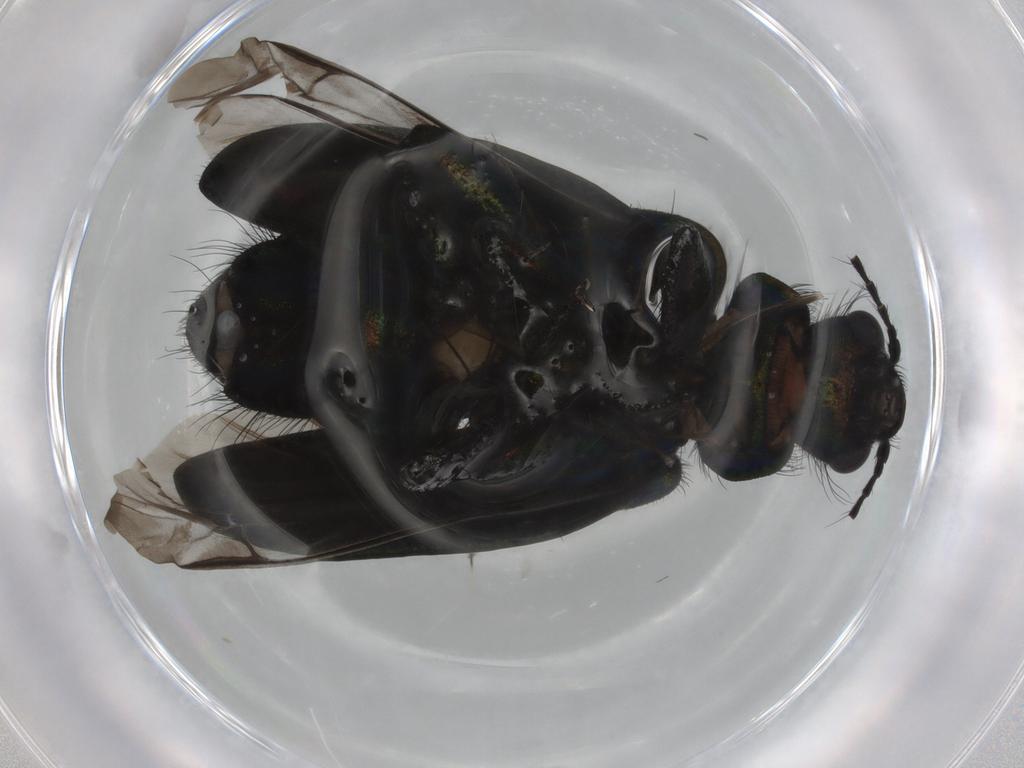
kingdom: Animalia
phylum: Arthropoda
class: Insecta
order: Coleoptera
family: Melyridae
